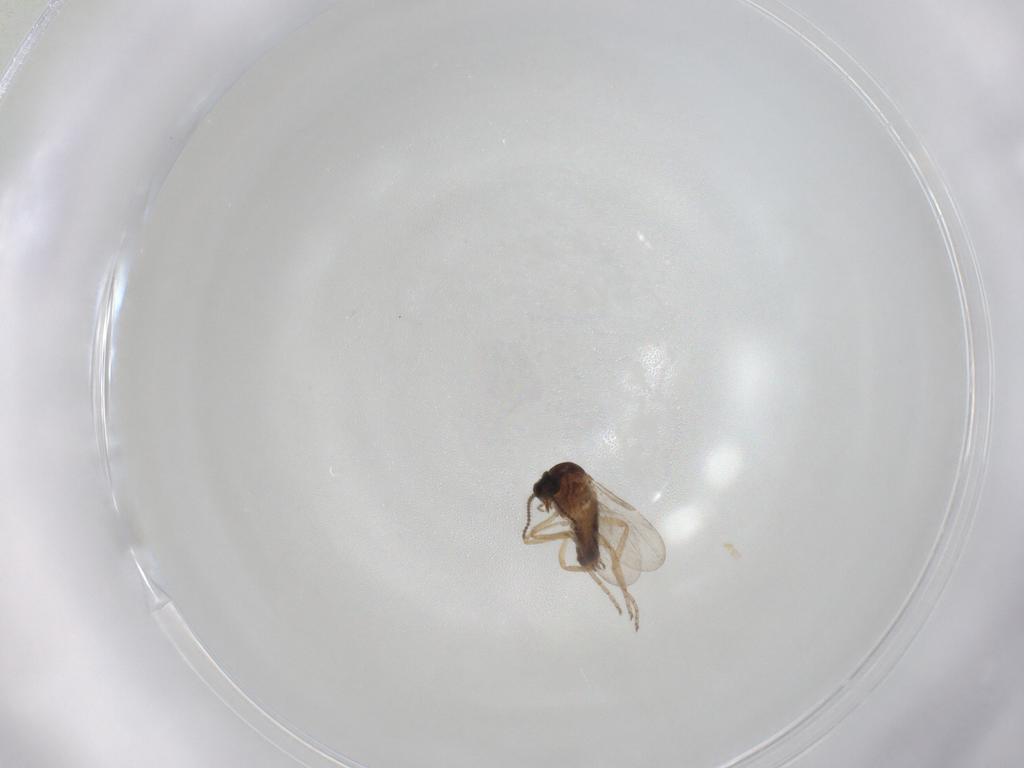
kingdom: Animalia
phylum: Arthropoda
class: Insecta
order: Diptera
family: Ceratopogonidae
